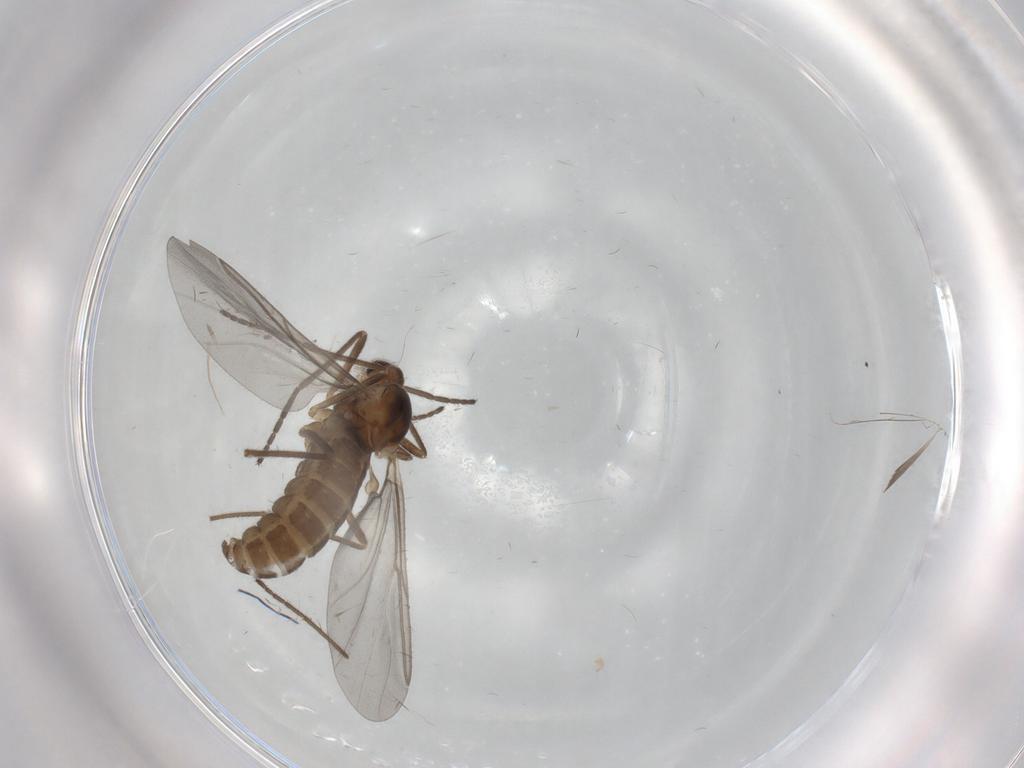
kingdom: Animalia
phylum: Arthropoda
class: Insecta
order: Diptera
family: Cecidomyiidae
